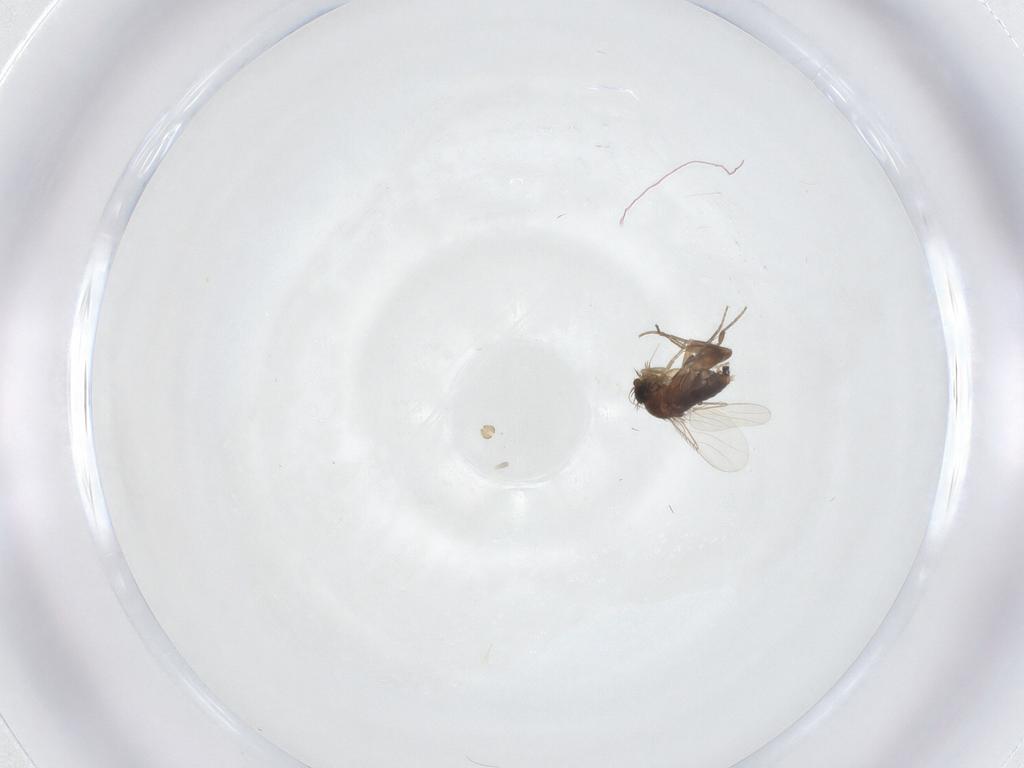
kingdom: Animalia
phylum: Arthropoda
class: Insecta
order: Diptera
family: Phoridae
